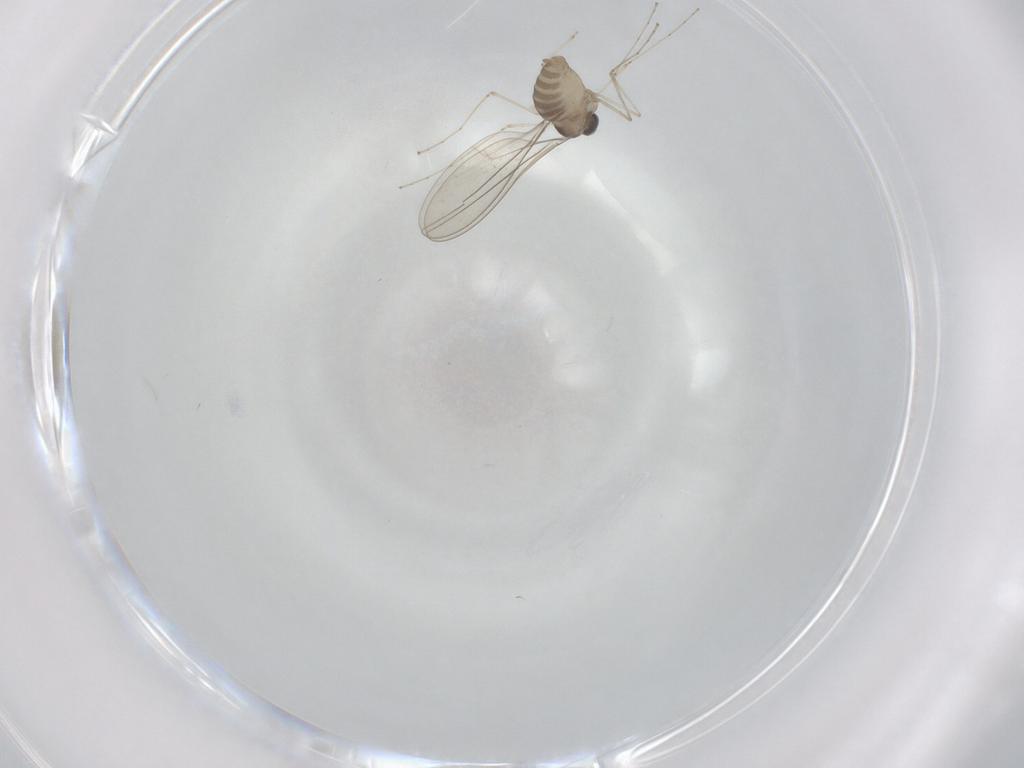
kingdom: Animalia
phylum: Arthropoda
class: Insecta
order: Diptera
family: Cecidomyiidae
